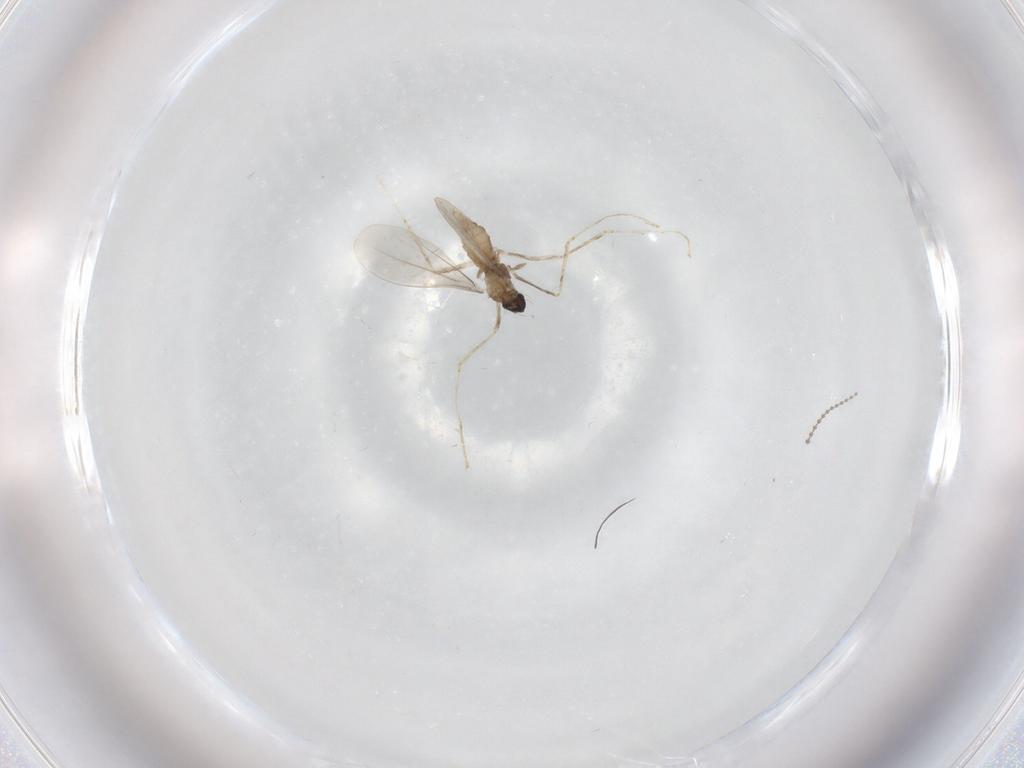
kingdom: Animalia
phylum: Arthropoda
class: Insecta
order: Diptera
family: Cecidomyiidae
